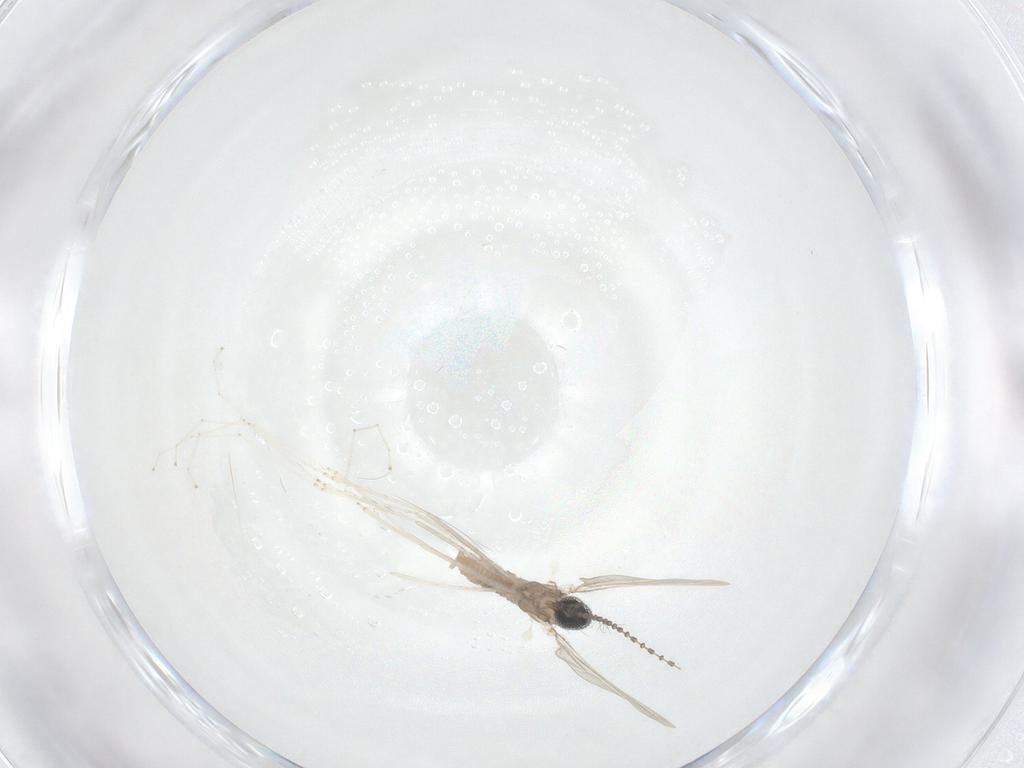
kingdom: Animalia
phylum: Arthropoda
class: Insecta
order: Diptera
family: Cecidomyiidae
